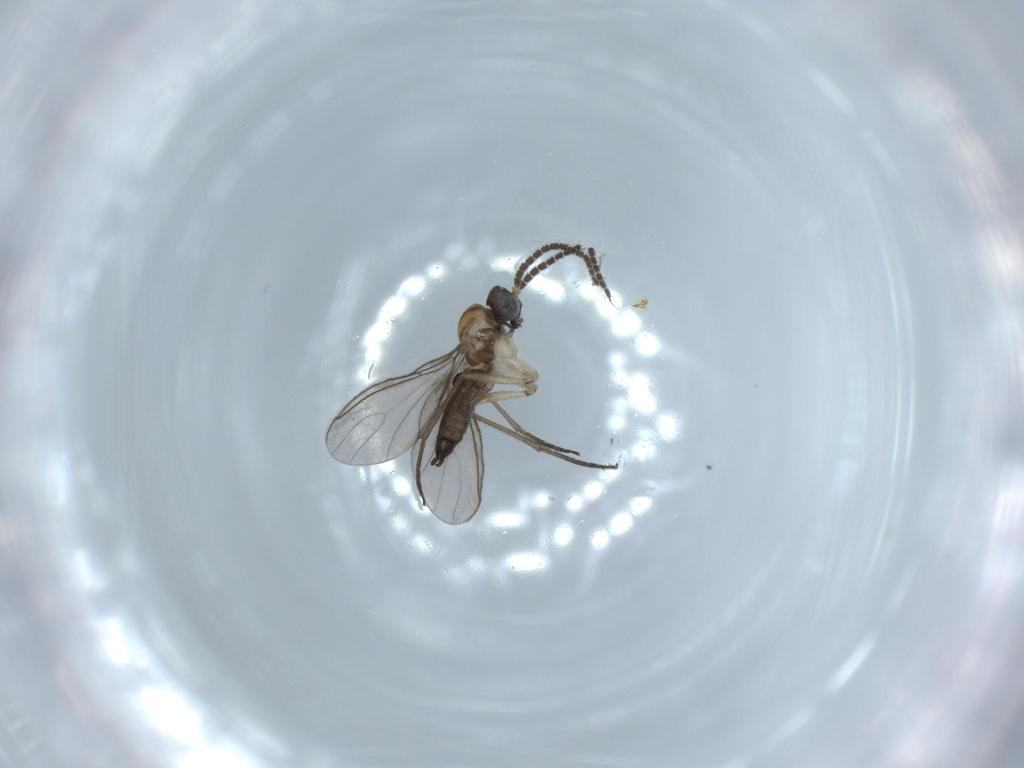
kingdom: Animalia
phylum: Arthropoda
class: Insecta
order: Diptera
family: Sciaridae
